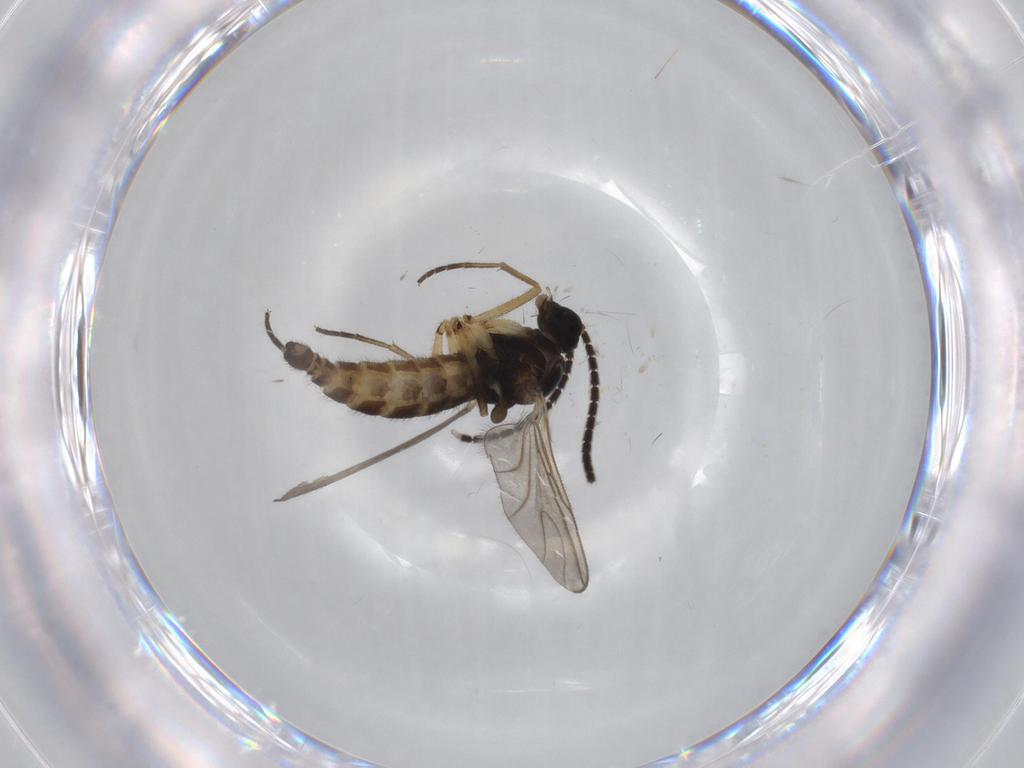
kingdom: Animalia
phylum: Arthropoda
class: Insecta
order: Diptera
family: Sciaridae
